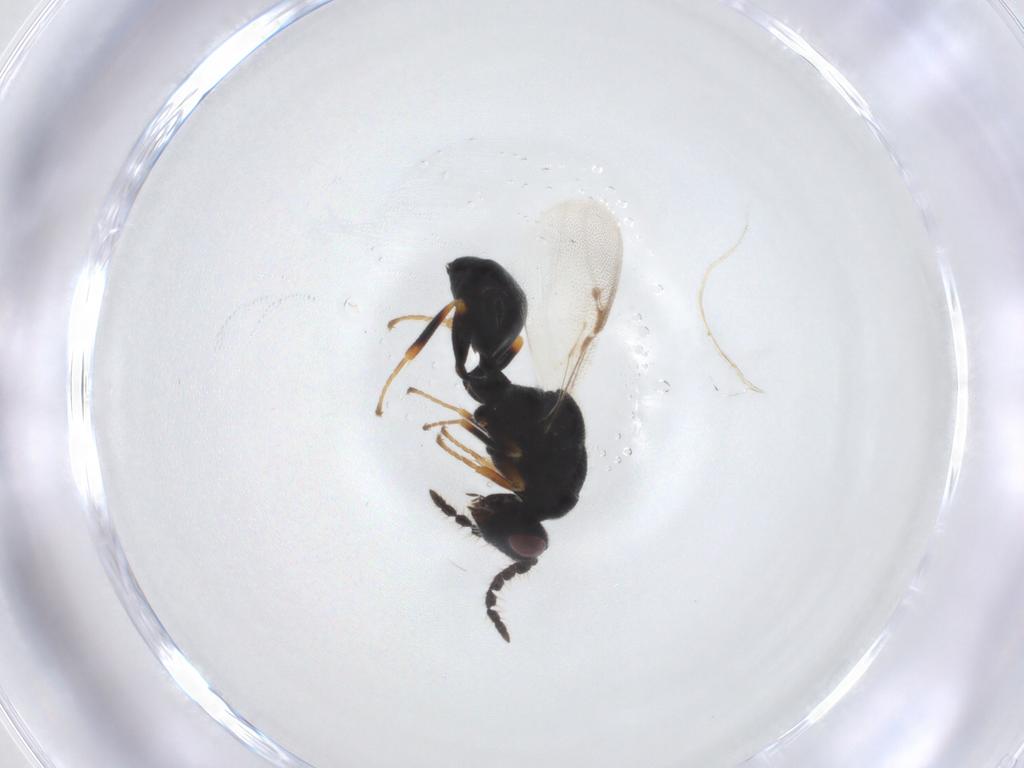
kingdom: Animalia
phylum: Arthropoda
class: Insecta
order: Hymenoptera
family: Eurytomidae
